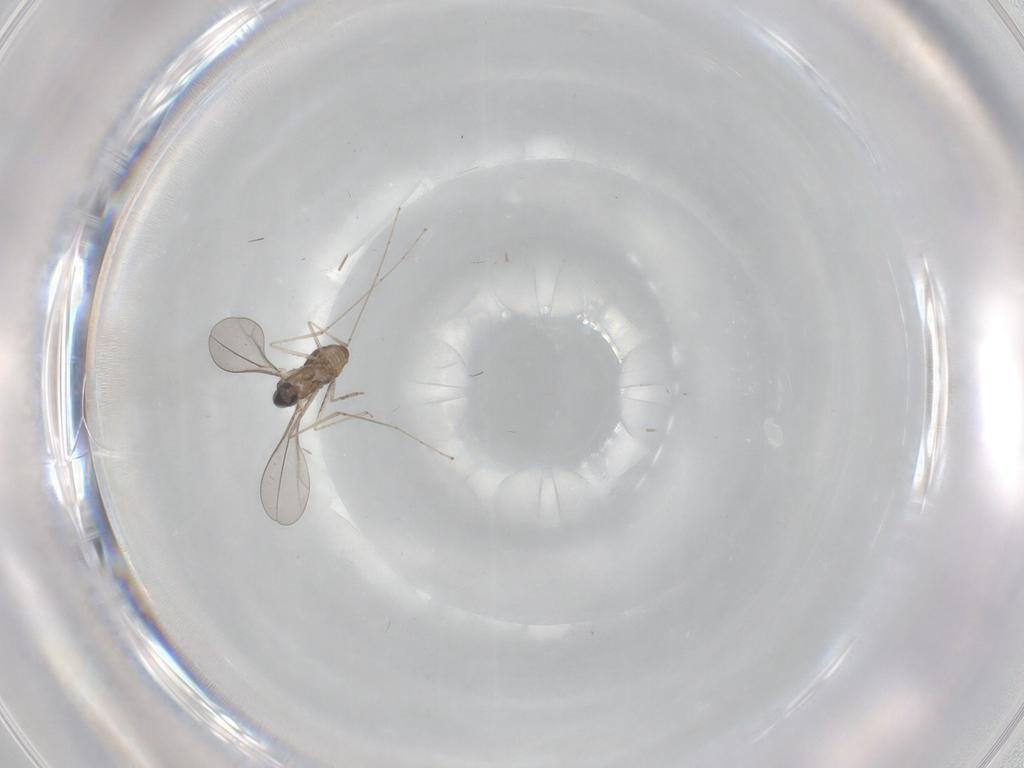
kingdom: Animalia
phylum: Arthropoda
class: Insecta
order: Diptera
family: Cecidomyiidae
